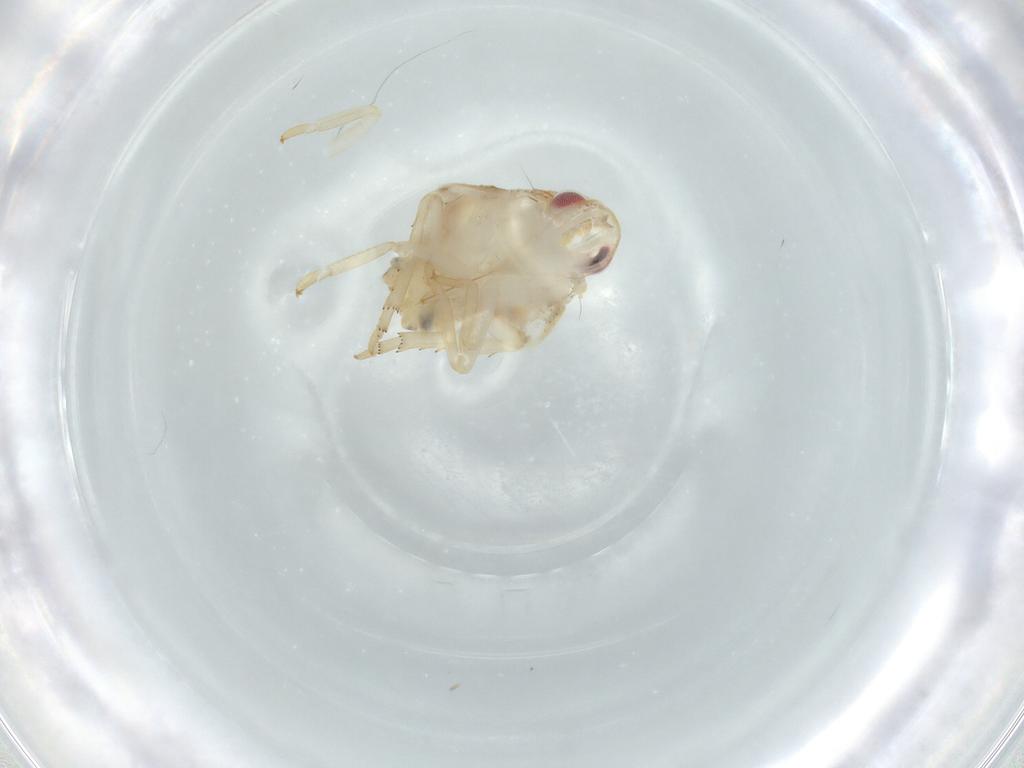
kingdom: Animalia
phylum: Arthropoda
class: Insecta
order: Hemiptera
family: Flatidae
